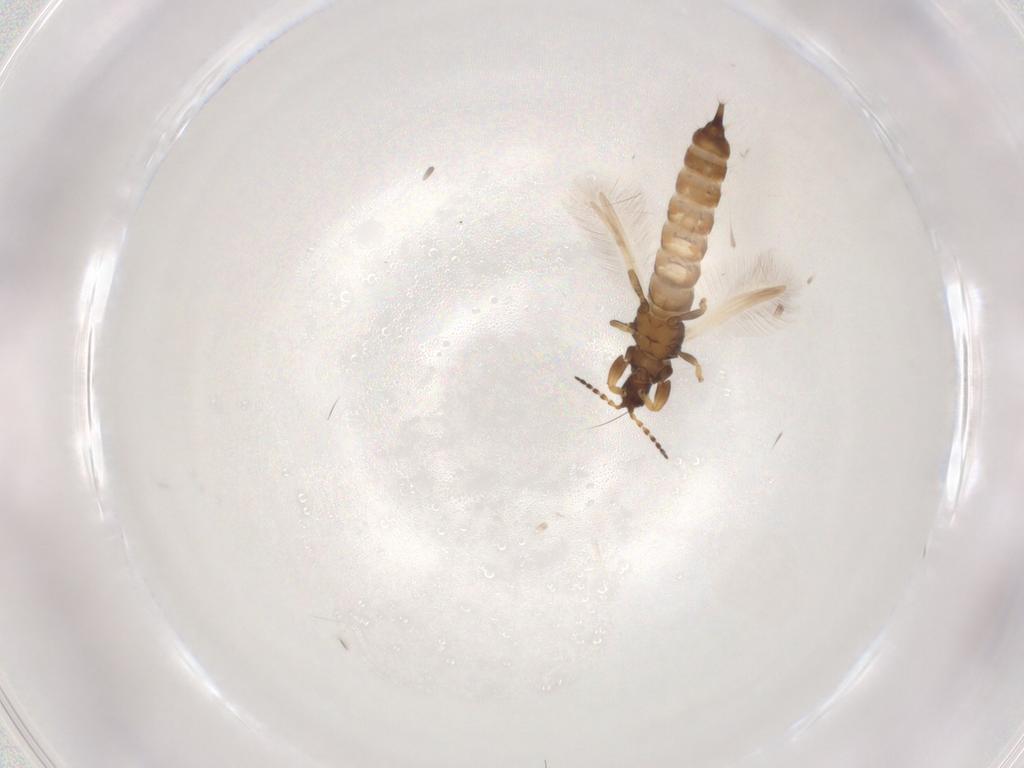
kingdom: Animalia
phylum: Arthropoda
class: Insecta
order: Thysanoptera
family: Phlaeothripidae
